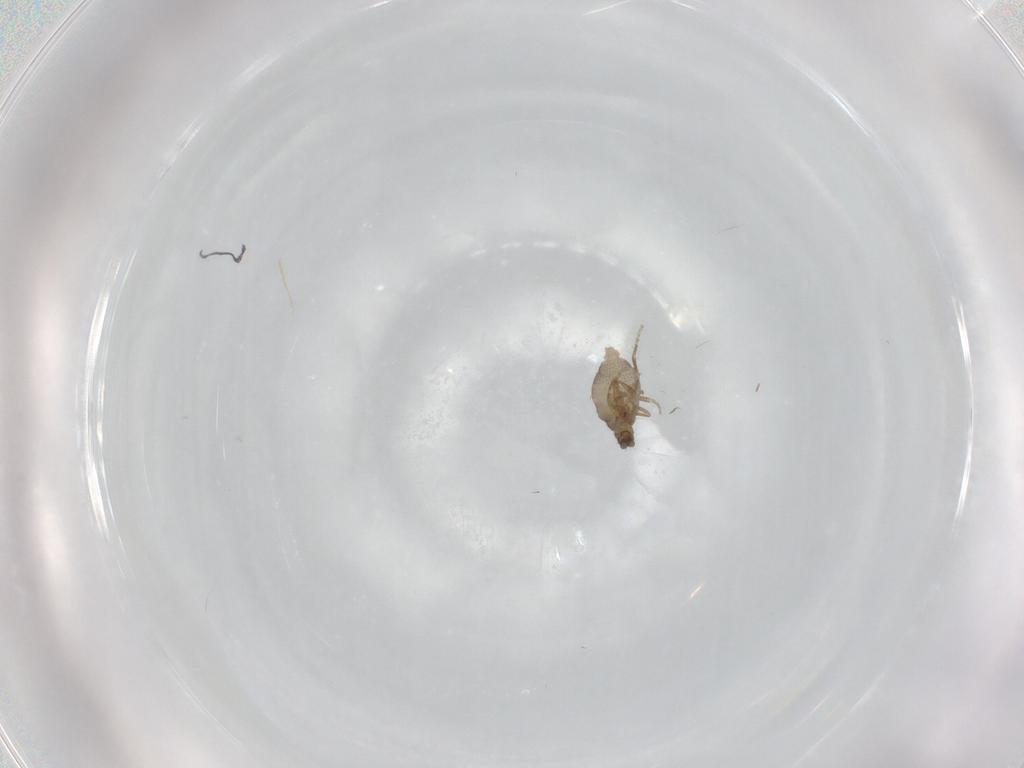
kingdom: Animalia
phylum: Arthropoda
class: Insecta
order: Diptera
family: Phoridae
